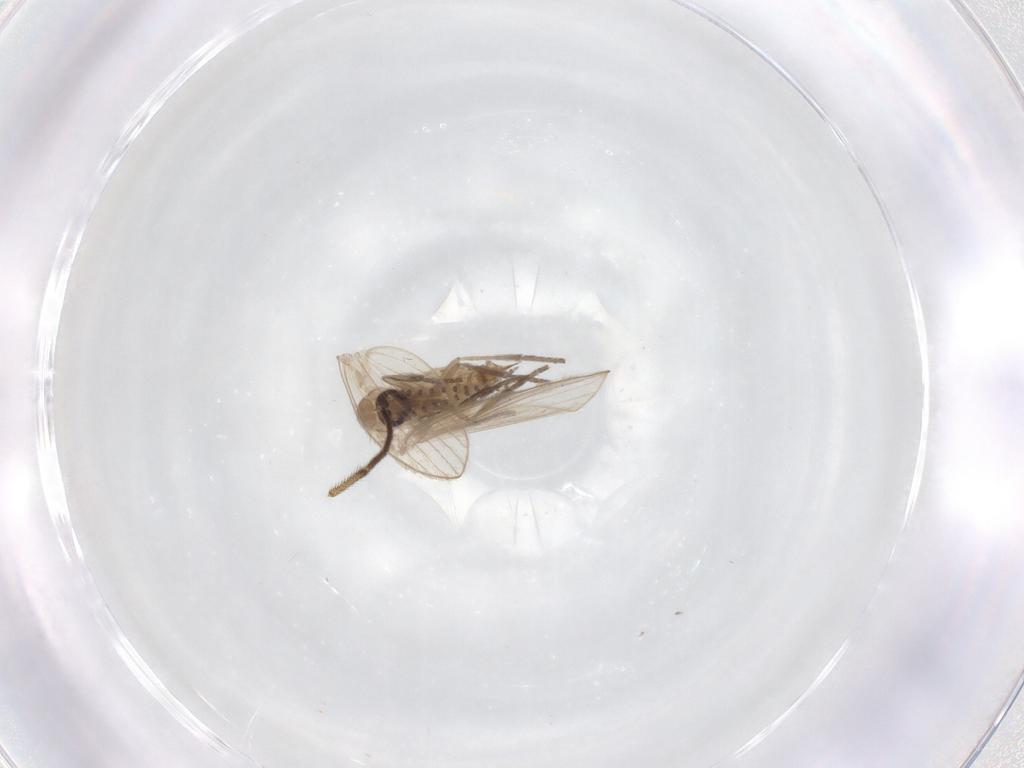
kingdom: Animalia
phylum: Arthropoda
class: Insecta
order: Diptera
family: Psychodidae
